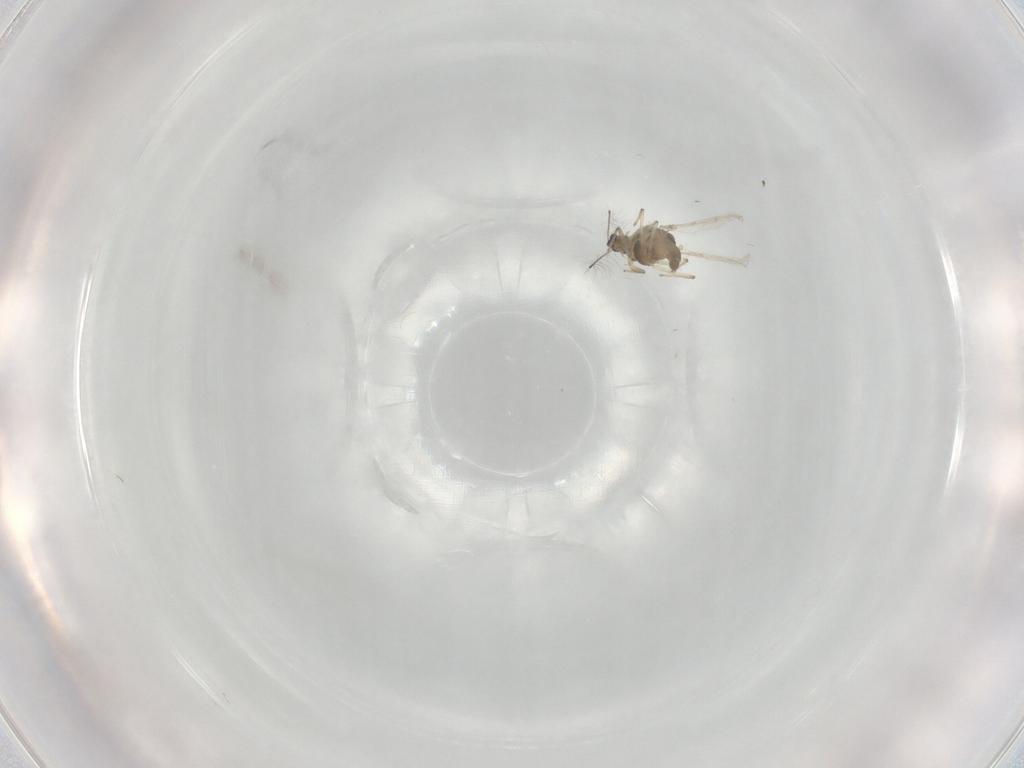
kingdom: Animalia
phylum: Arthropoda
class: Insecta
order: Diptera
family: Chironomidae
